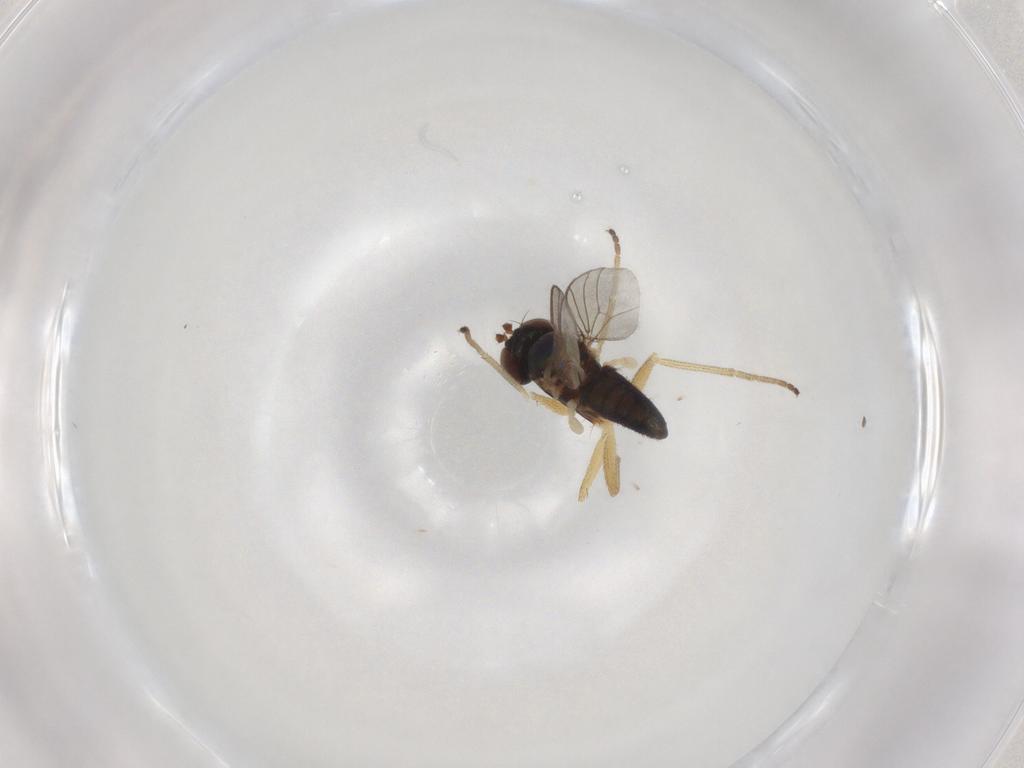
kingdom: Animalia
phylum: Arthropoda
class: Insecta
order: Diptera
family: Dolichopodidae
